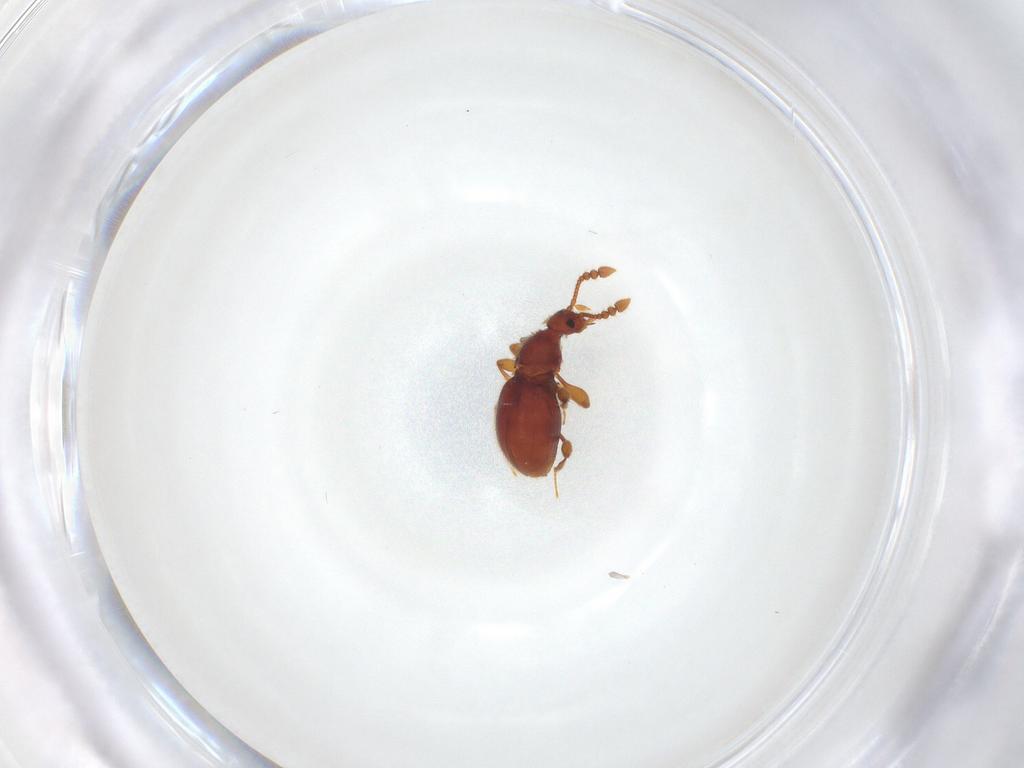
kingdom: Animalia
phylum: Arthropoda
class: Insecta
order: Coleoptera
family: Staphylinidae
